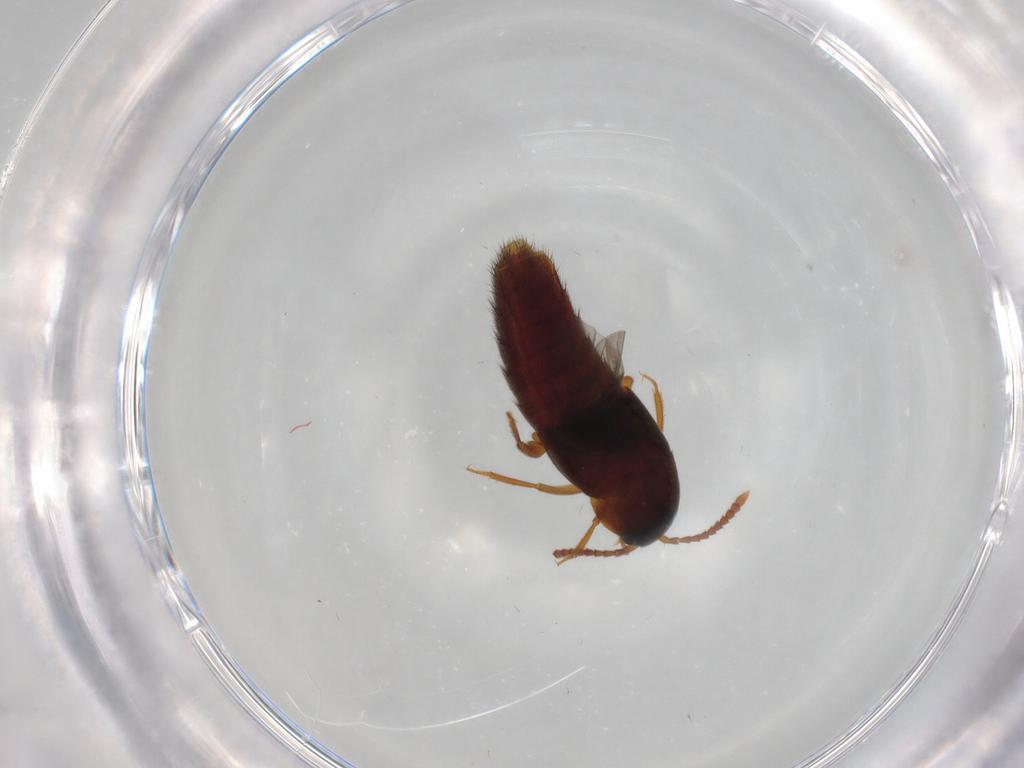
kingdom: Animalia
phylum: Arthropoda
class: Insecta
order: Coleoptera
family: Staphylinidae
